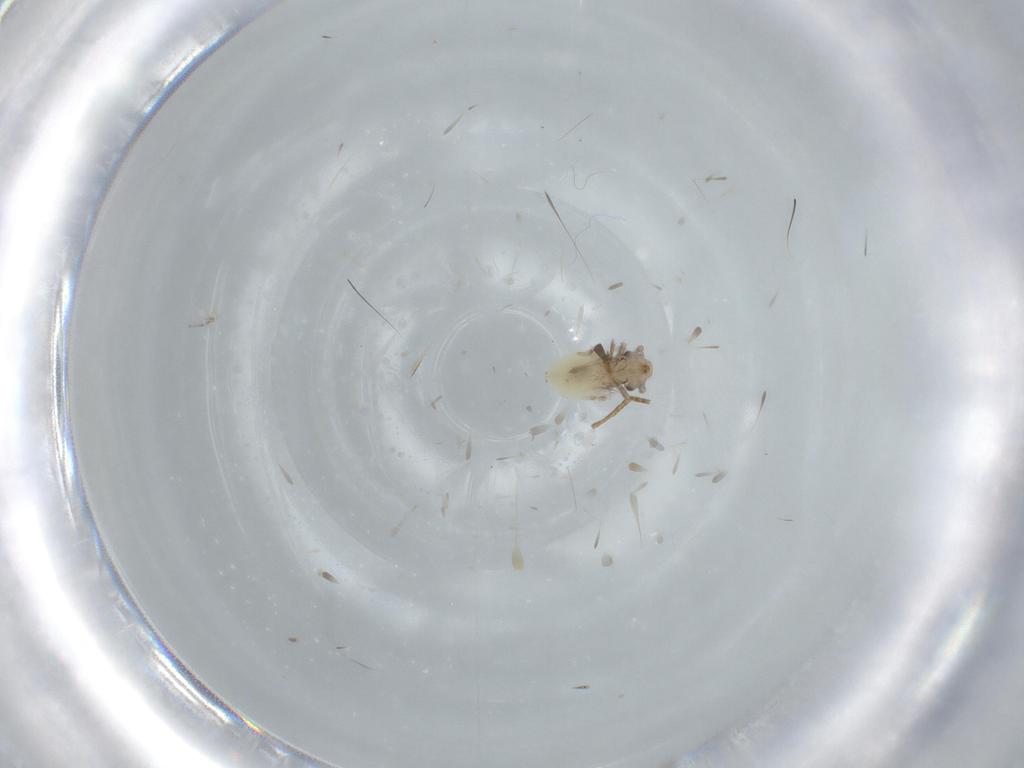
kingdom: Animalia
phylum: Arthropoda
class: Insecta
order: Psocodea
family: Lepidopsocidae
